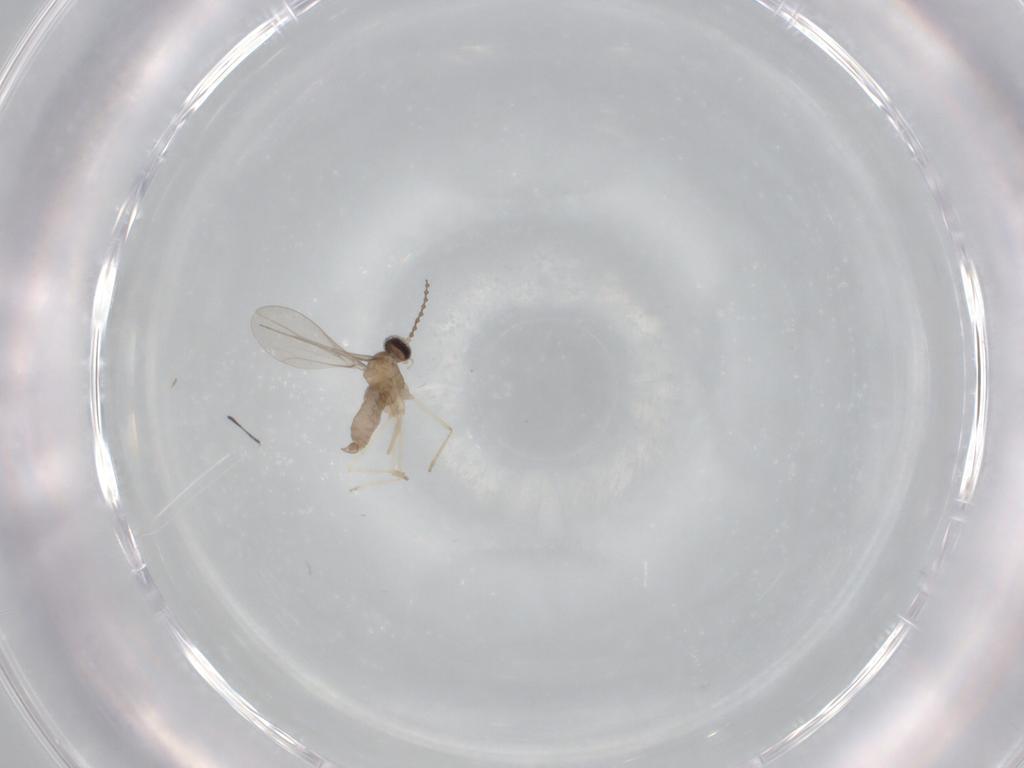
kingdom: Animalia
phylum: Arthropoda
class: Insecta
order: Diptera
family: Cecidomyiidae
